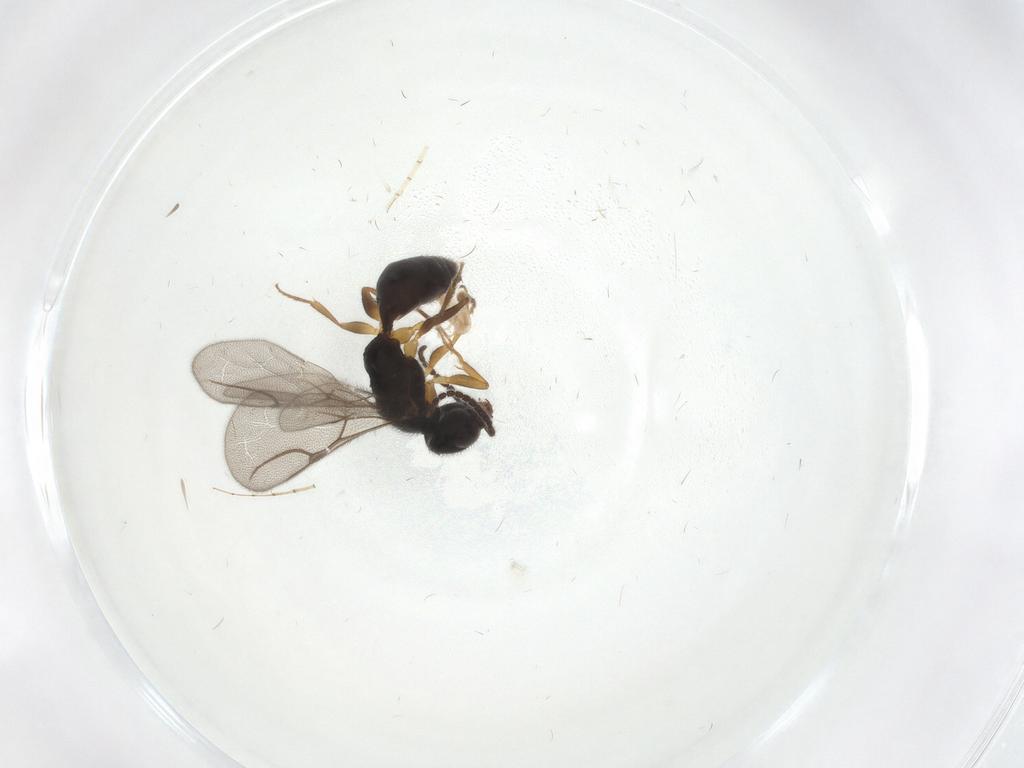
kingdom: Animalia
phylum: Arthropoda
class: Insecta
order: Hymenoptera
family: Bethylidae
